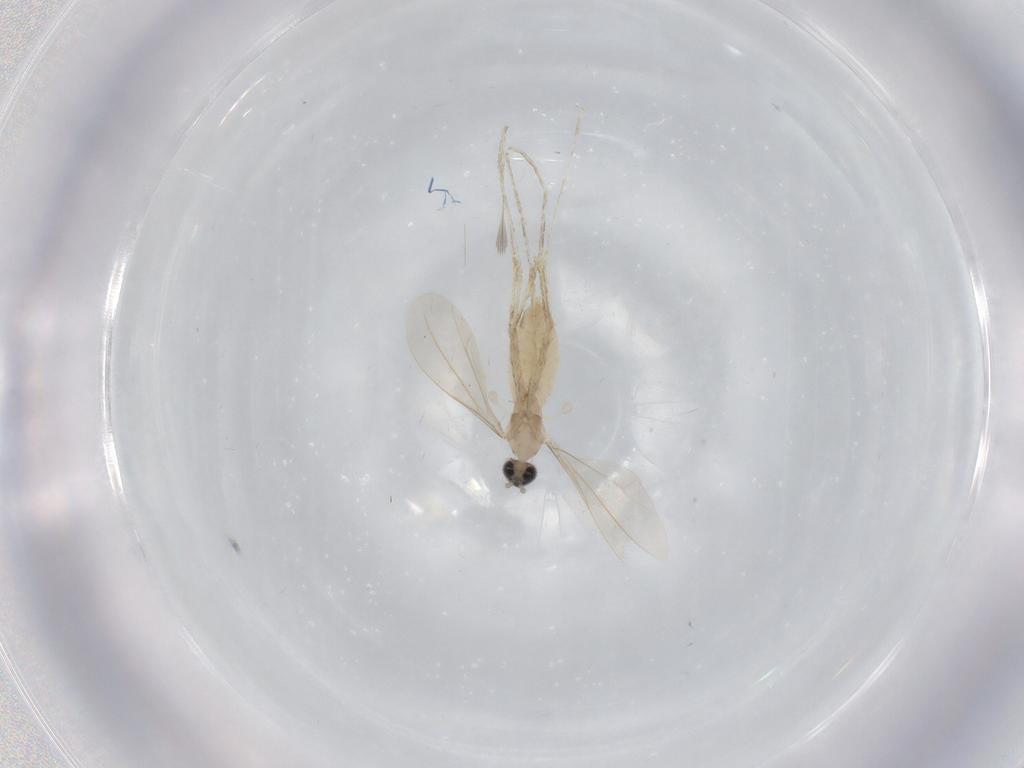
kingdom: Animalia
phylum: Arthropoda
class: Insecta
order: Diptera
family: Cecidomyiidae
